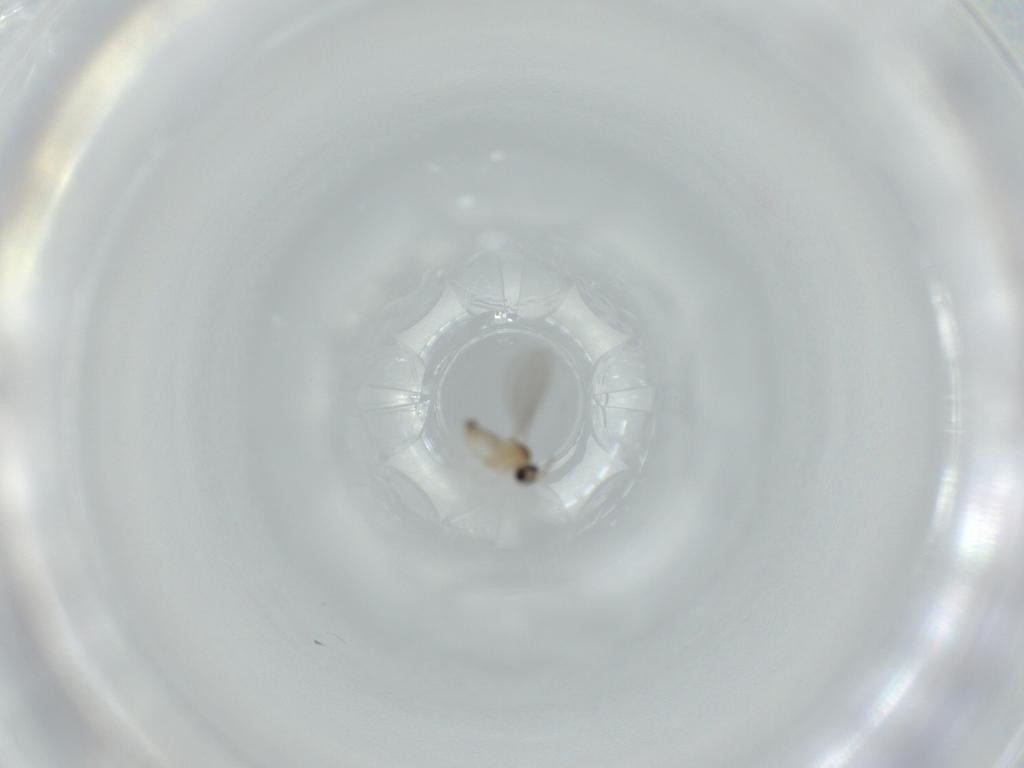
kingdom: Animalia
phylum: Arthropoda
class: Insecta
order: Diptera
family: Cecidomyiidae
